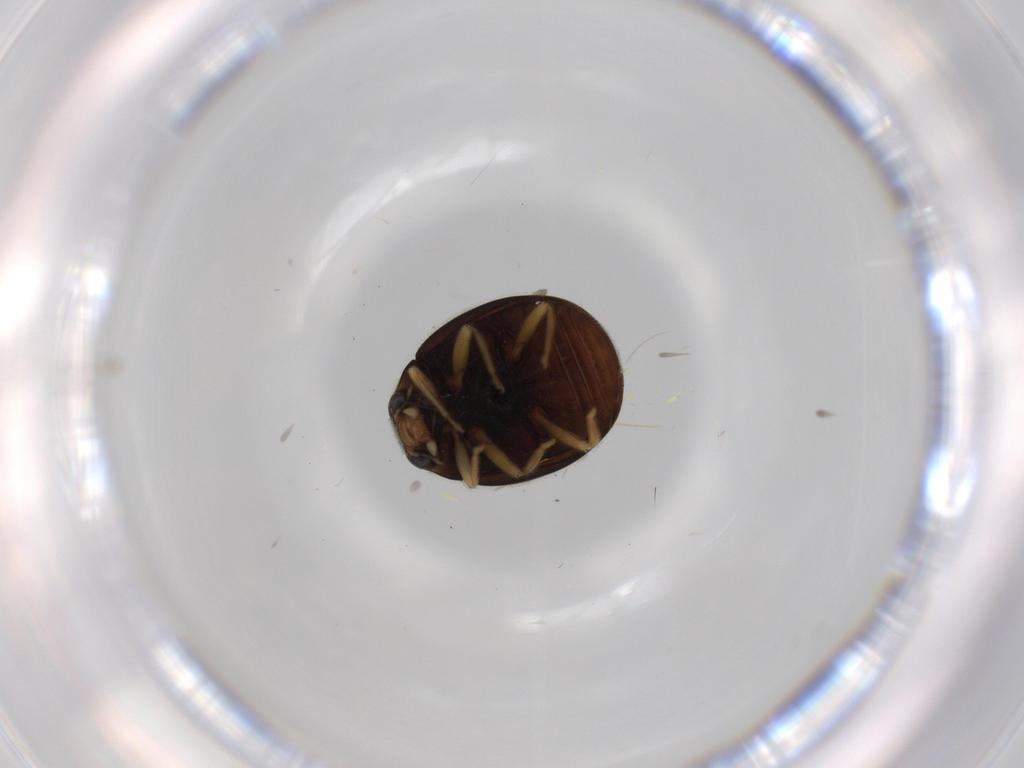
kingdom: Animalia
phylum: Arthropoda
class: Insecta
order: Coleoptera
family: Coccinellidae
